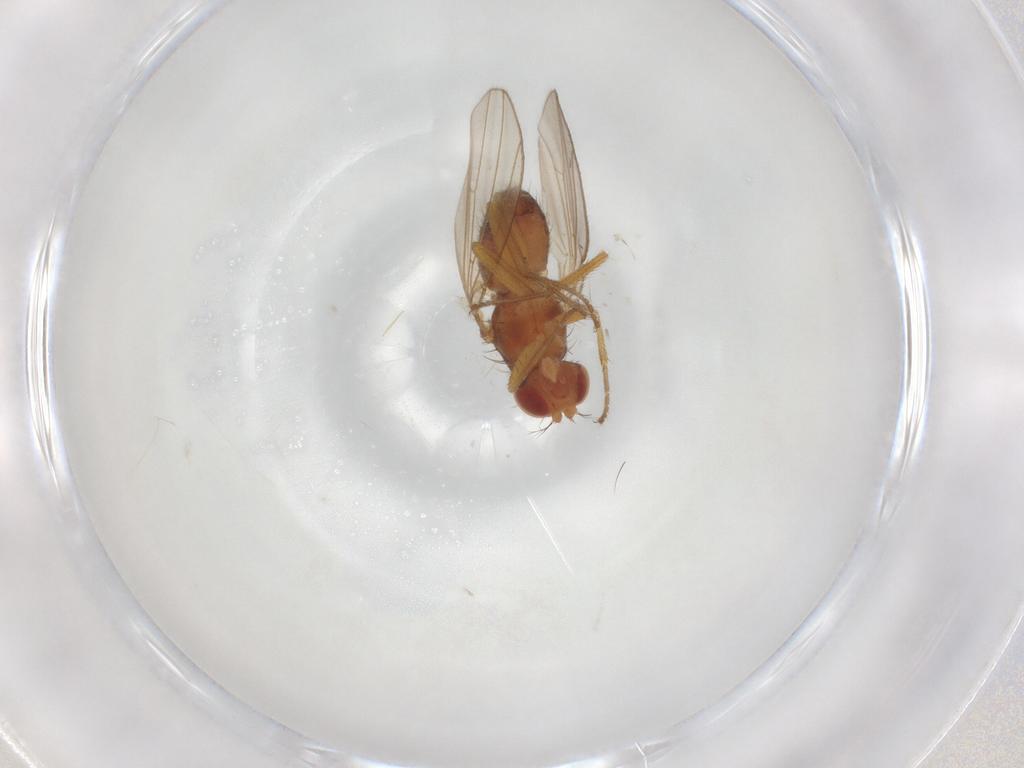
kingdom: Animalia
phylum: Arthropoda
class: Insecta
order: Diptera
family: Drosophilidae
